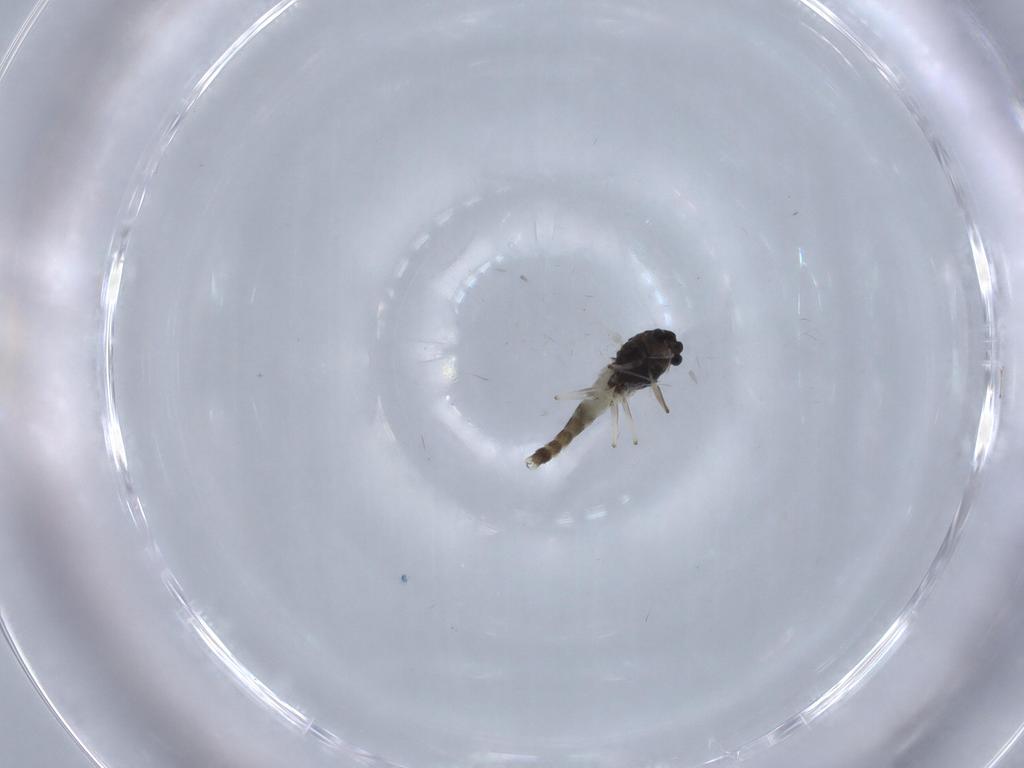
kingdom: Animalia
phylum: Arthropoda
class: Insecta
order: Diptera
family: Chironomidae
